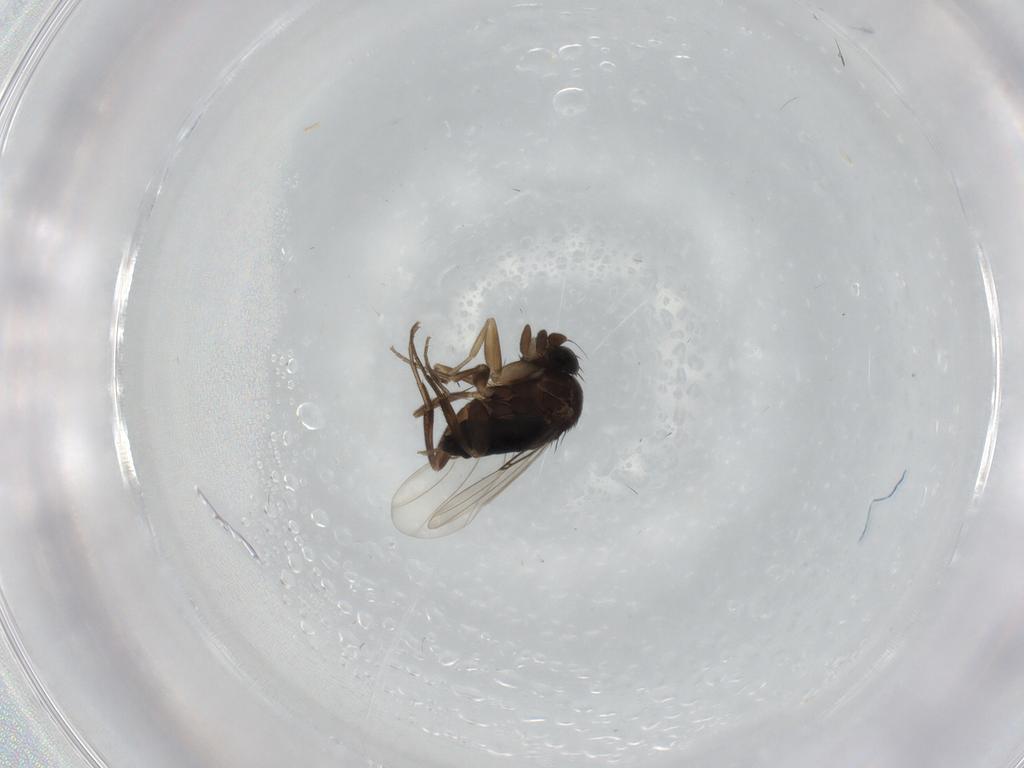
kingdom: Animalia
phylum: Arthropoda
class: Insecta
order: Diptera
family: Phoridae
